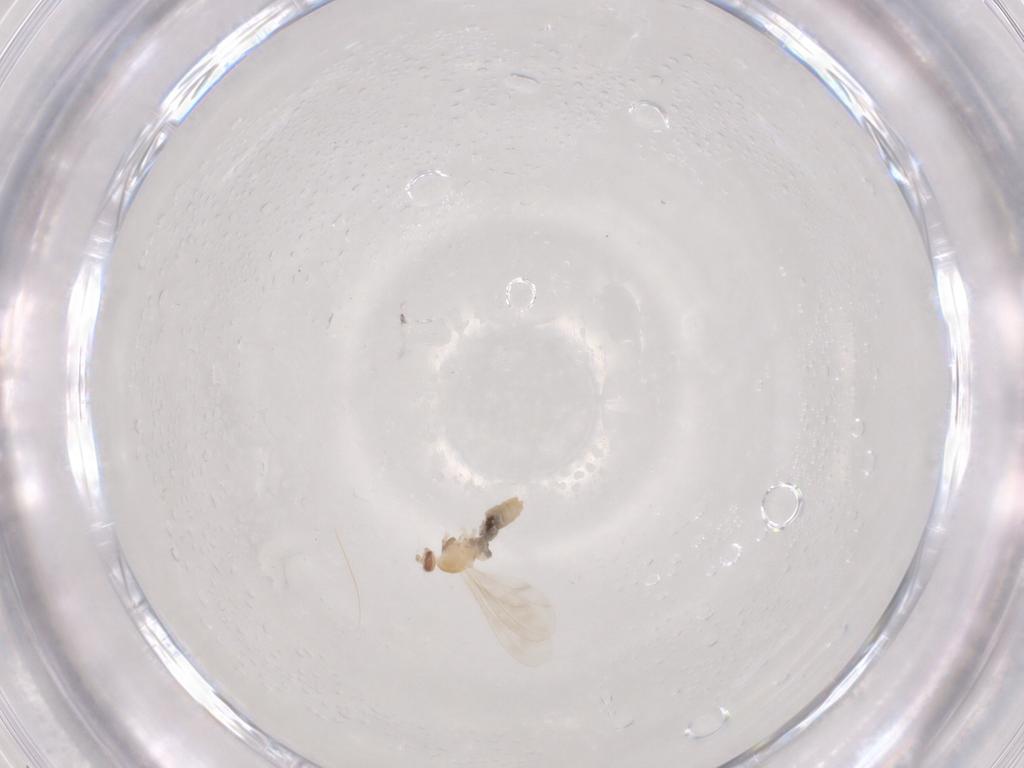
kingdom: Animalia
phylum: Arthropoda
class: Insecta
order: Diptera
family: Cecidomyiidae
